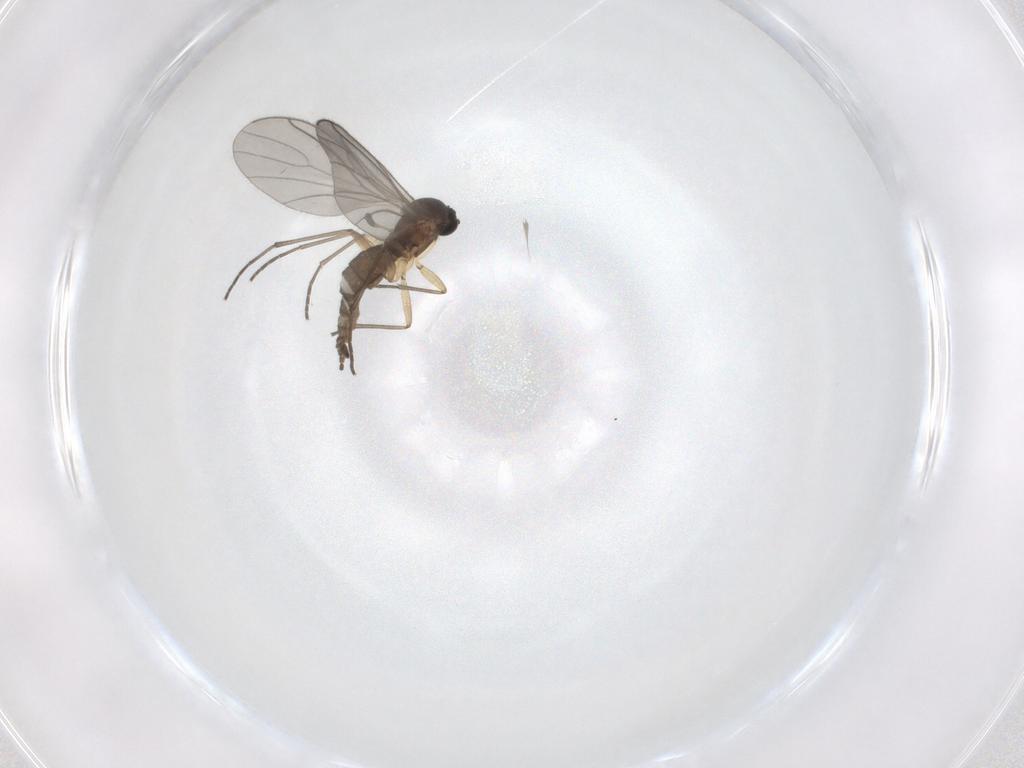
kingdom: Animalia
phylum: Arthropoda
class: Insecta
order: Diptera
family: Sciaridae
